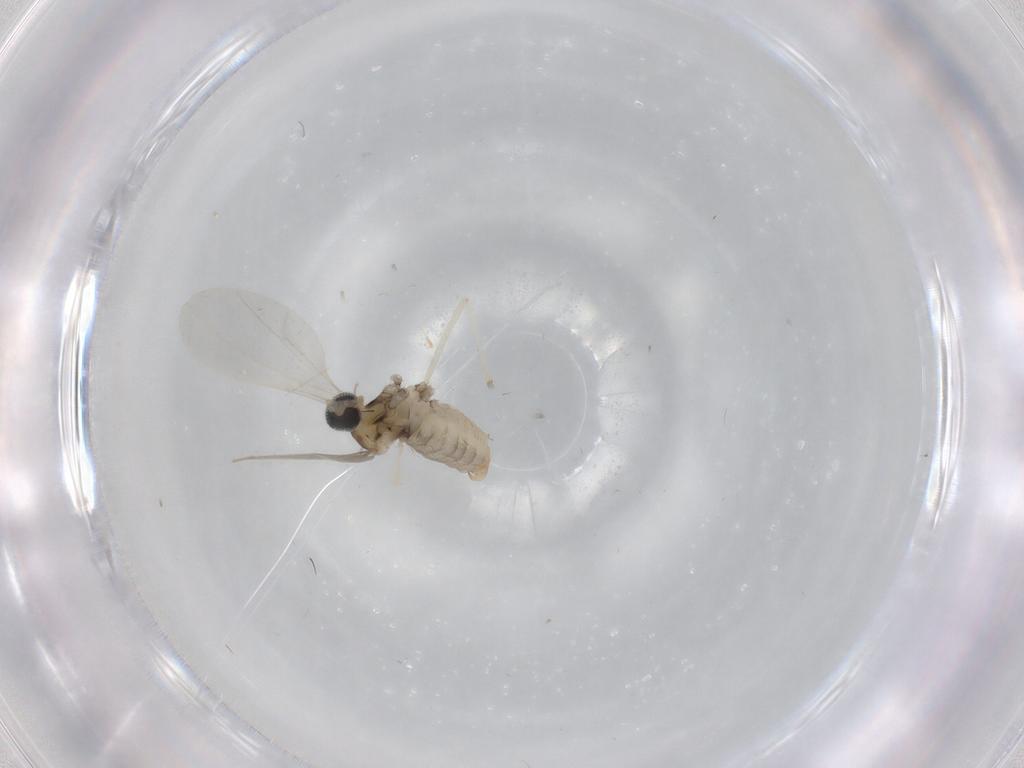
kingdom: Animalia
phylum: Arthropoda
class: Insecta
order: Diptera
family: Cecidomyiidae
